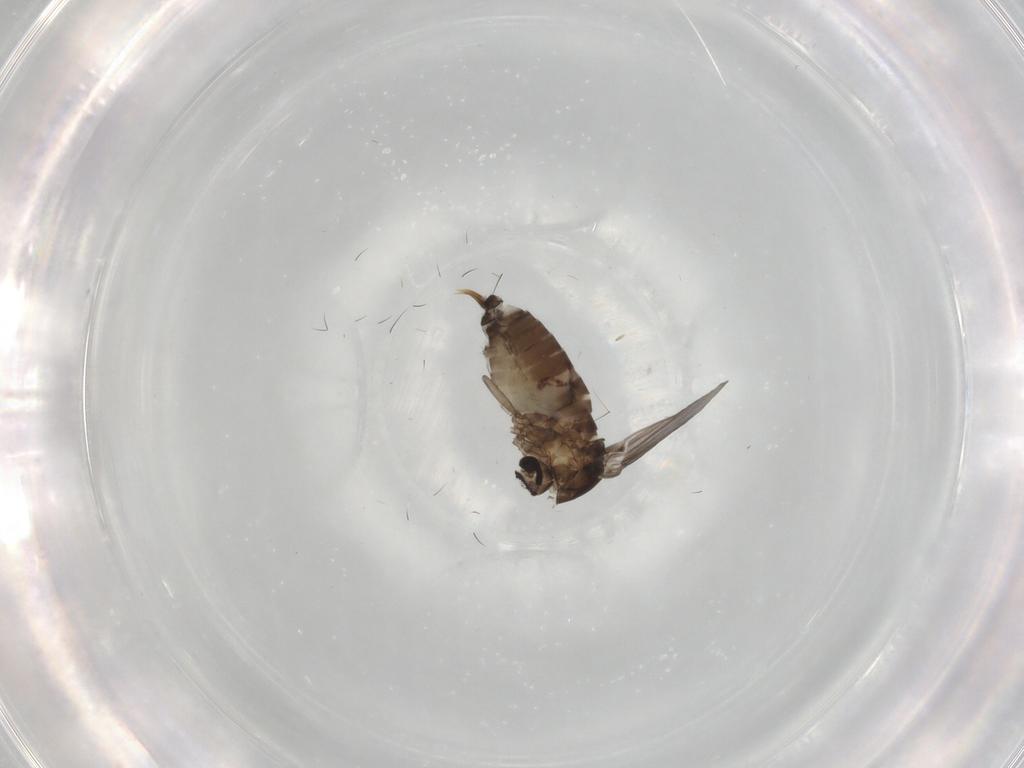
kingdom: Animalia
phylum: Arthropoda
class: Insecta
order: Diptera
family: Psychodidae
